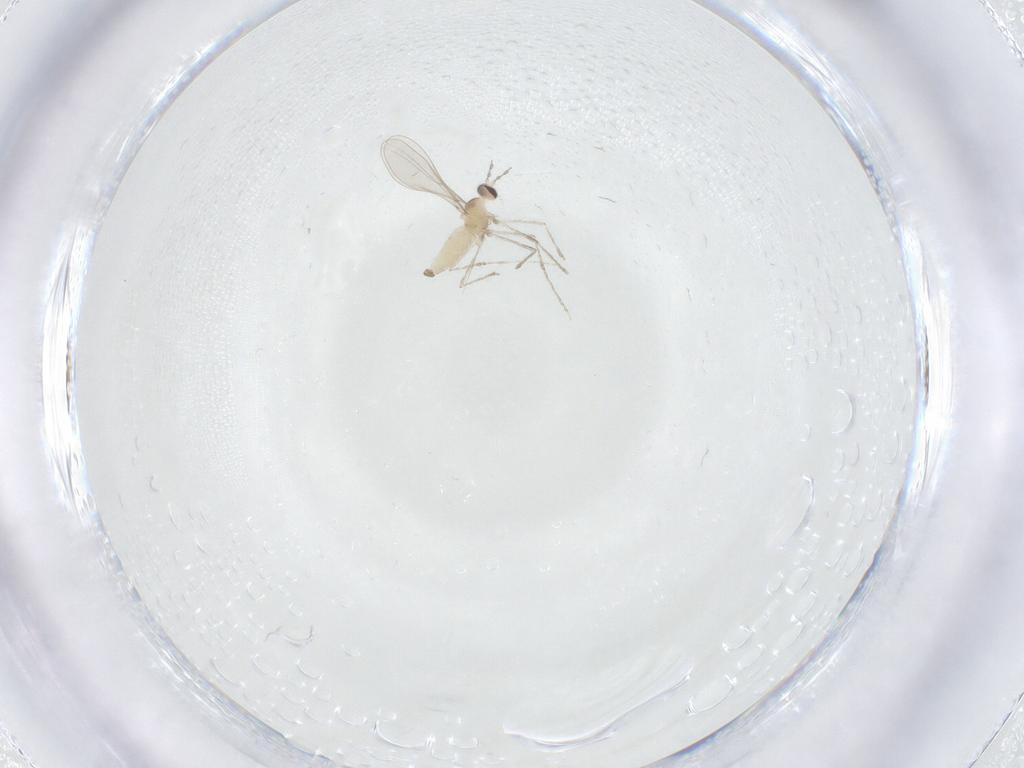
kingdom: Animalia
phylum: Arthropoda
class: Insecta
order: Diptera
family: Cecidomyiidae
